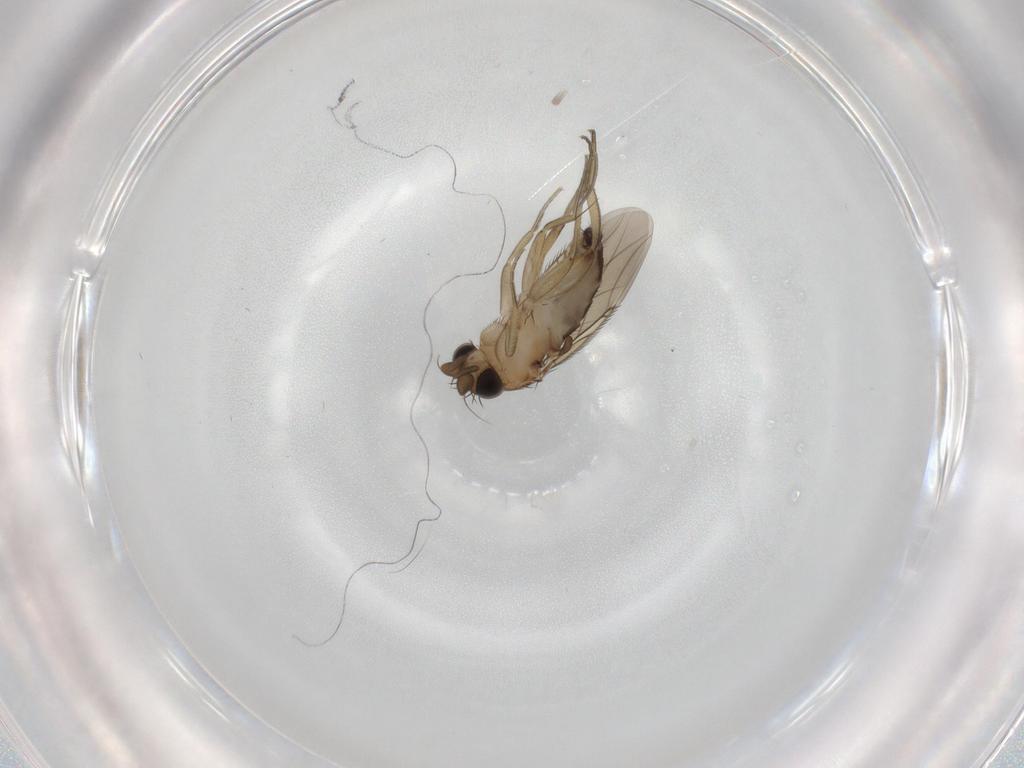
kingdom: Animalia
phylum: Arthropoda
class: Insecta
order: Diptera
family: Phoridae
